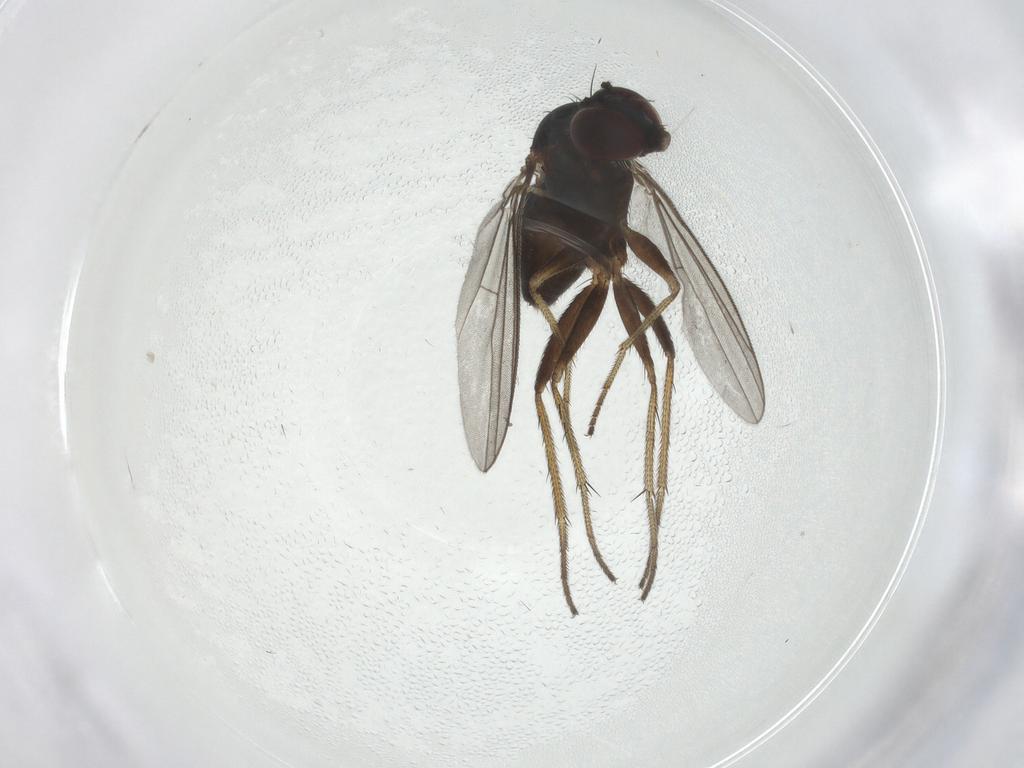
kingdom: Animalia
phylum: Arthropoda
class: Insecta
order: Diptera
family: Dolichopodidae
